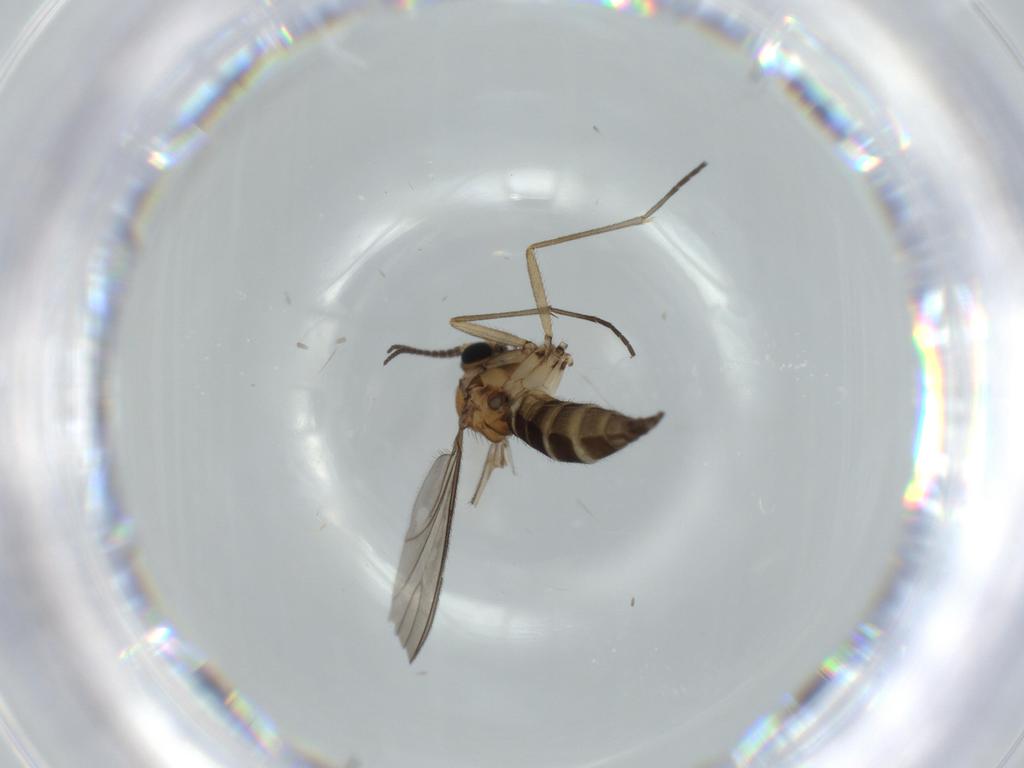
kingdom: Animalia
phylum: Arthropoda
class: Insecta
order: Diptera
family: Sciaridae
